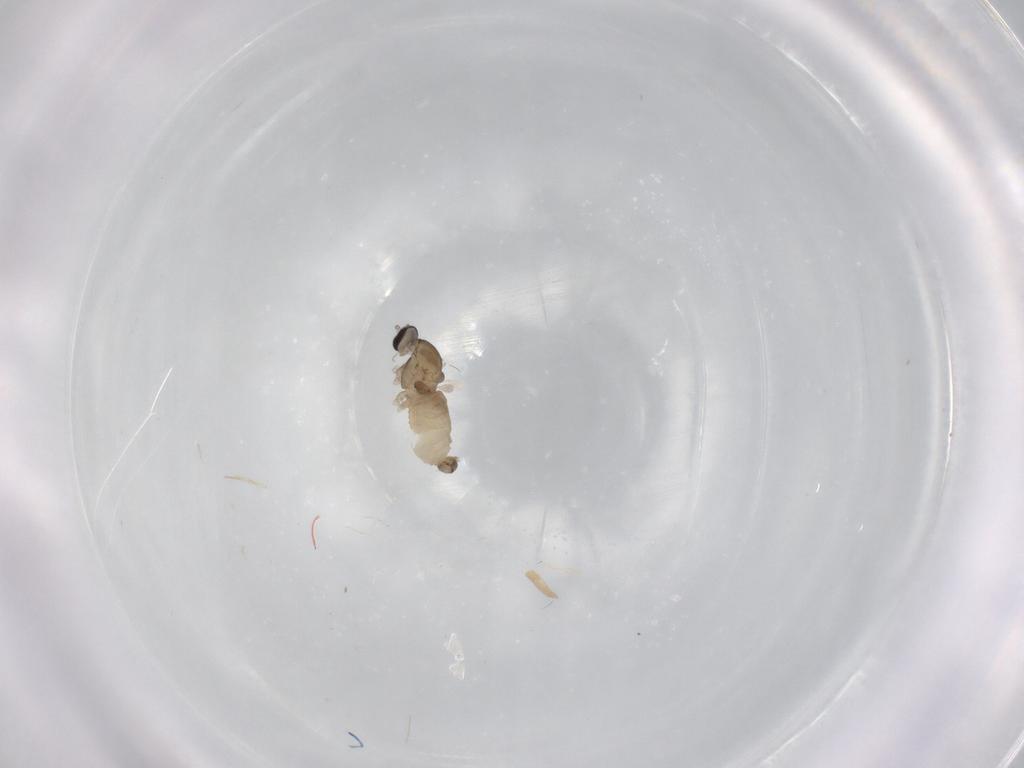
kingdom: Animalia
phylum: Arthropoda
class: Insecta
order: Diptera
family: Cecidomyiidae
